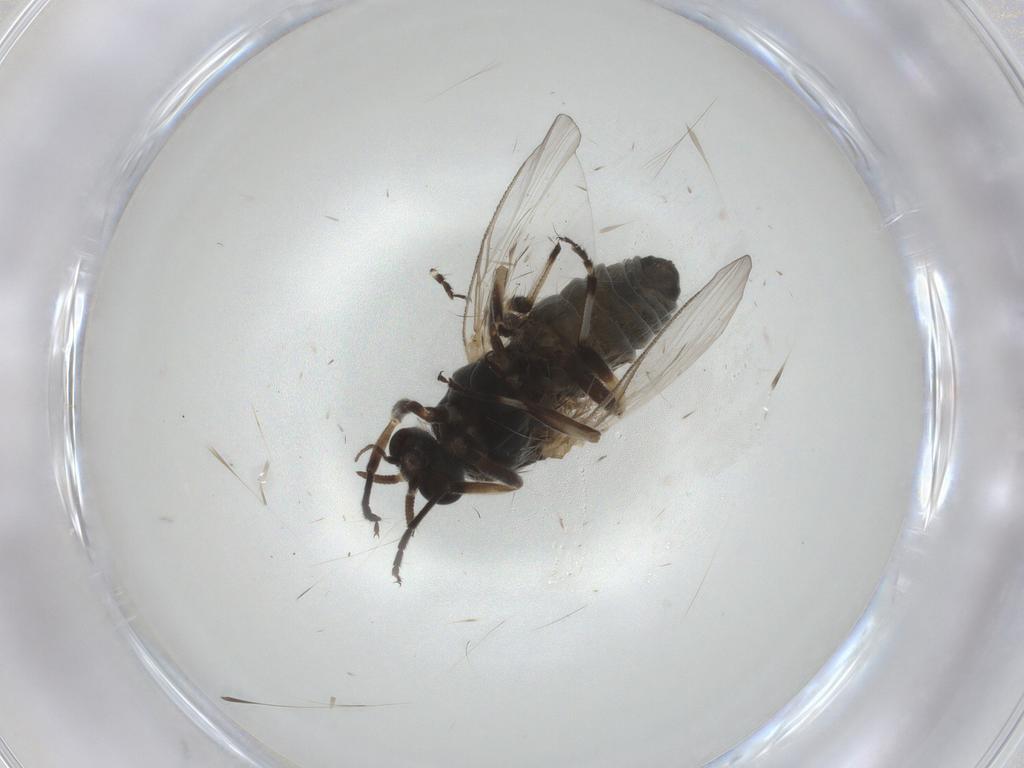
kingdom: Animalia
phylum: Arthropoda
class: Insecta
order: Diptera
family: Simuliidae
